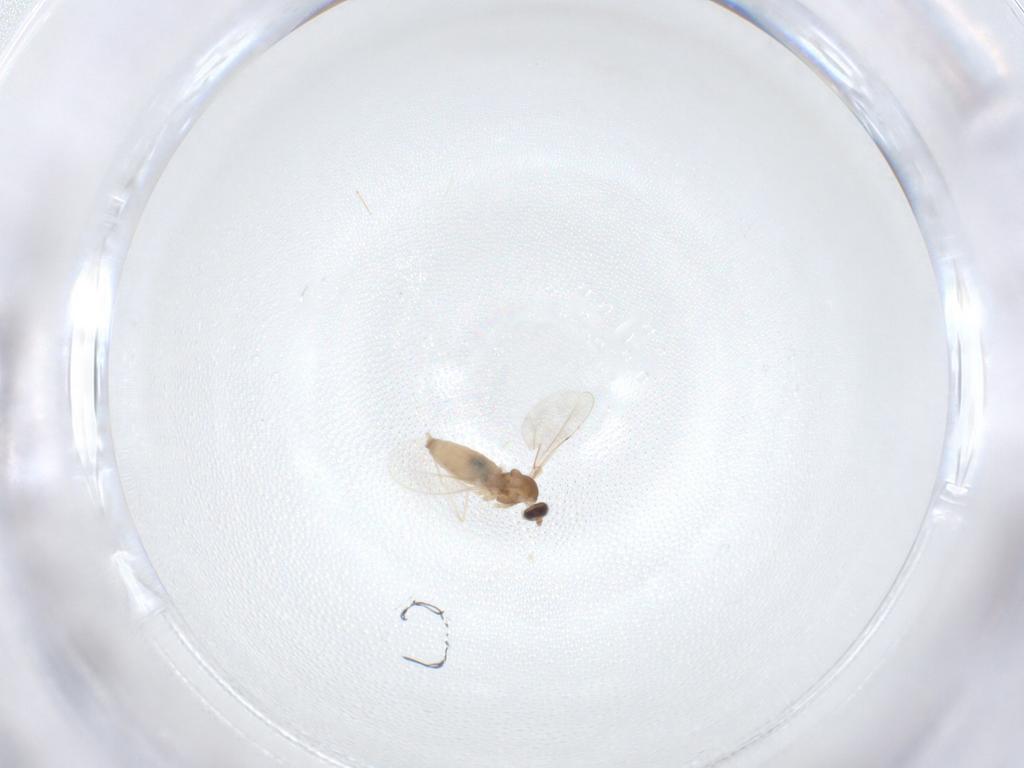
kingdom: Animalia
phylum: Arthropoda
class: Insecta
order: Diptera
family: Cecidomyiidae
